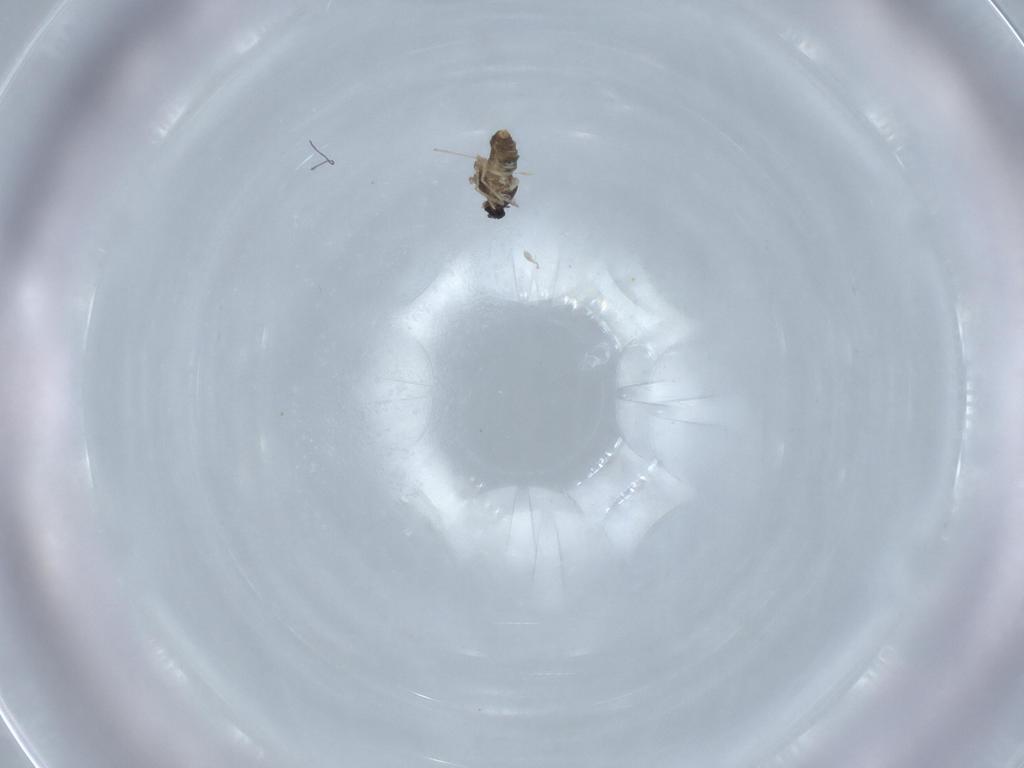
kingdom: Animalia
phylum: Arthropoda
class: Insecta
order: Diptera
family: Cecidomyiidae
